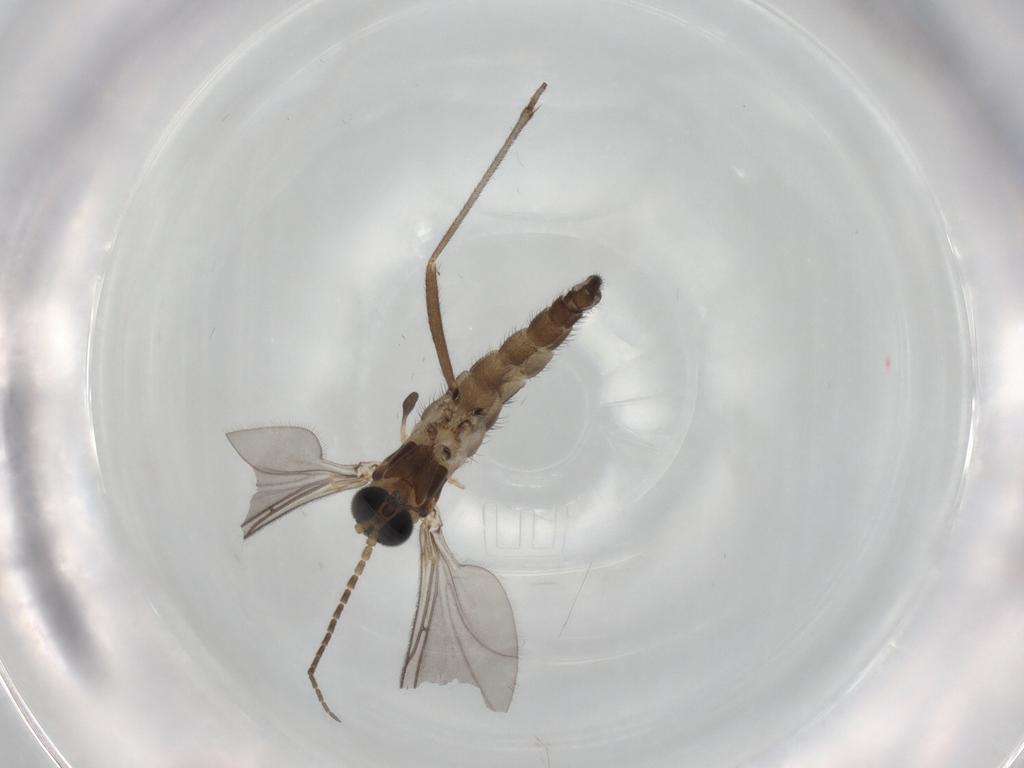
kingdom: Animalia
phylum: Arthropoda
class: Insecta
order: Diptera
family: Sciaridae
